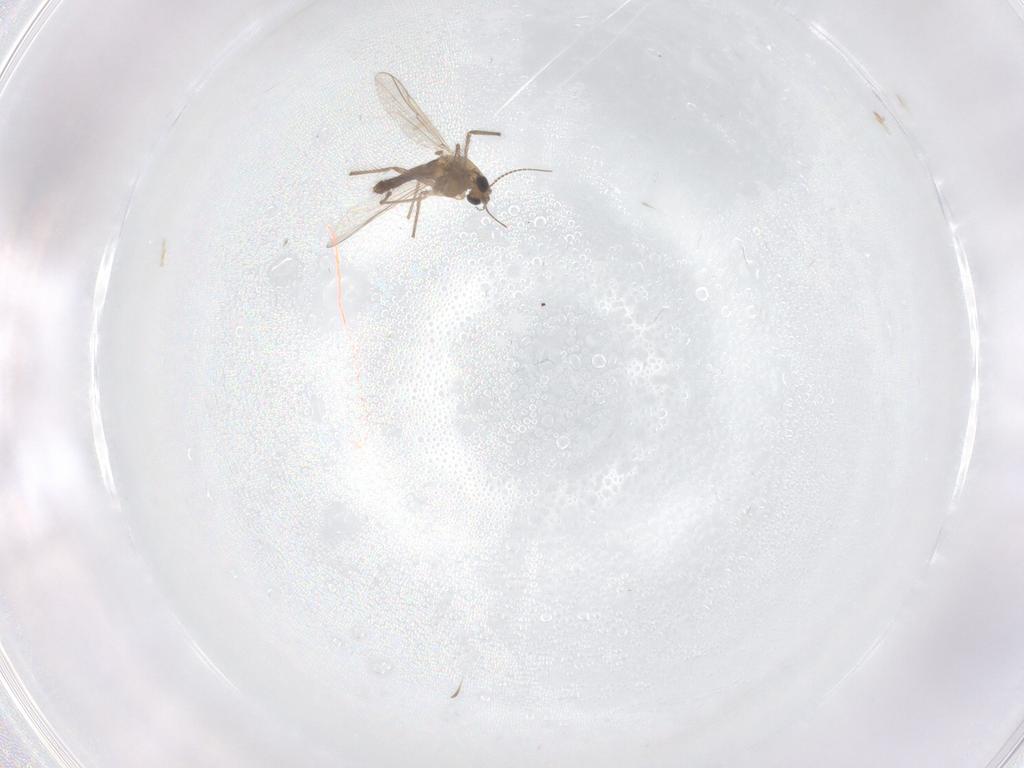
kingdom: Animalia
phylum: Arthropoda
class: Insecta
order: Diptera
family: Chironomidae
